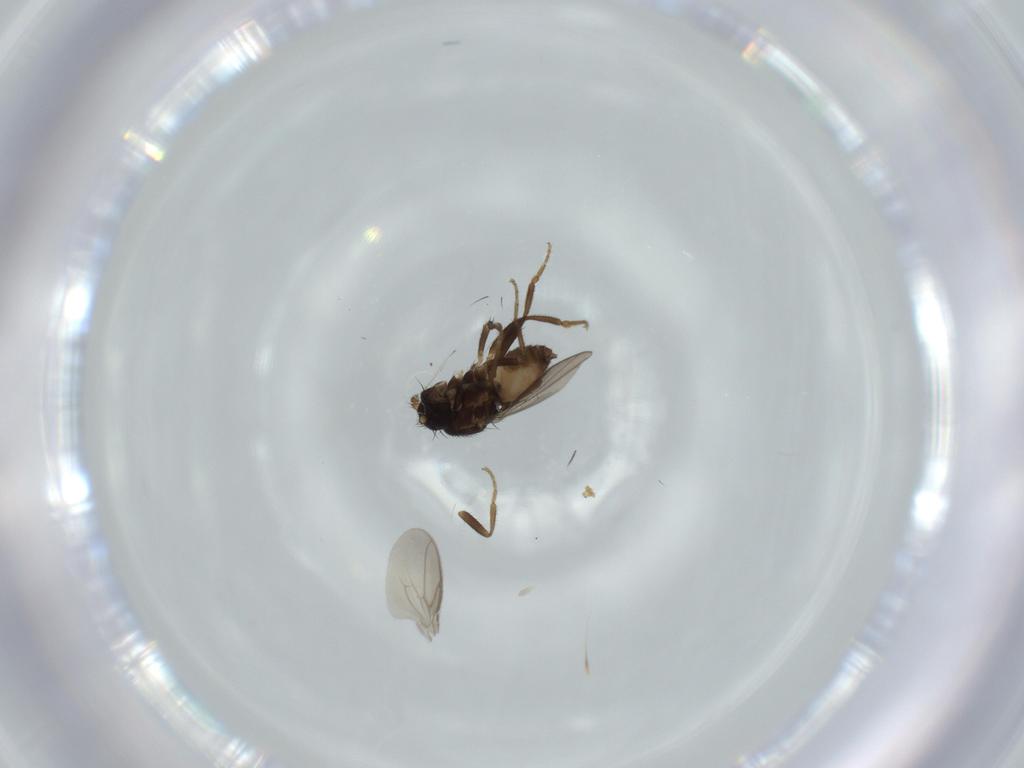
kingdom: Animalia
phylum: Arthropoda
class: Insecta
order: Diptera
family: Sphaeroceridae
